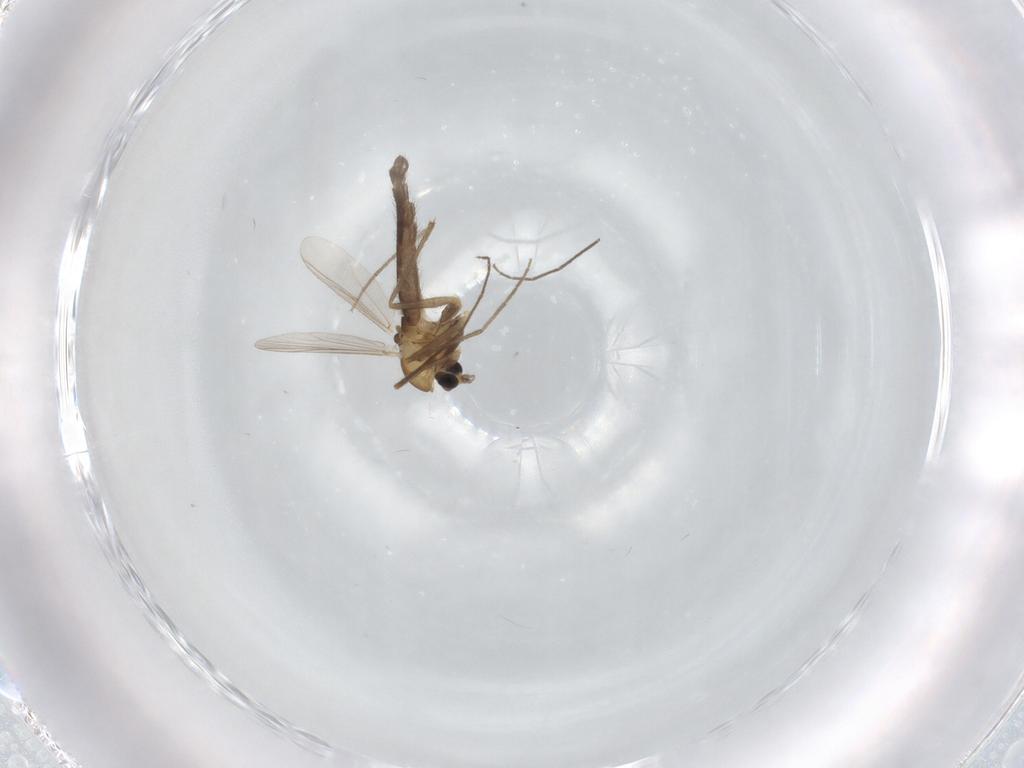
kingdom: Animalia
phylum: Arthropoda
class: Insecta
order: Diptera
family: Chironomidae
